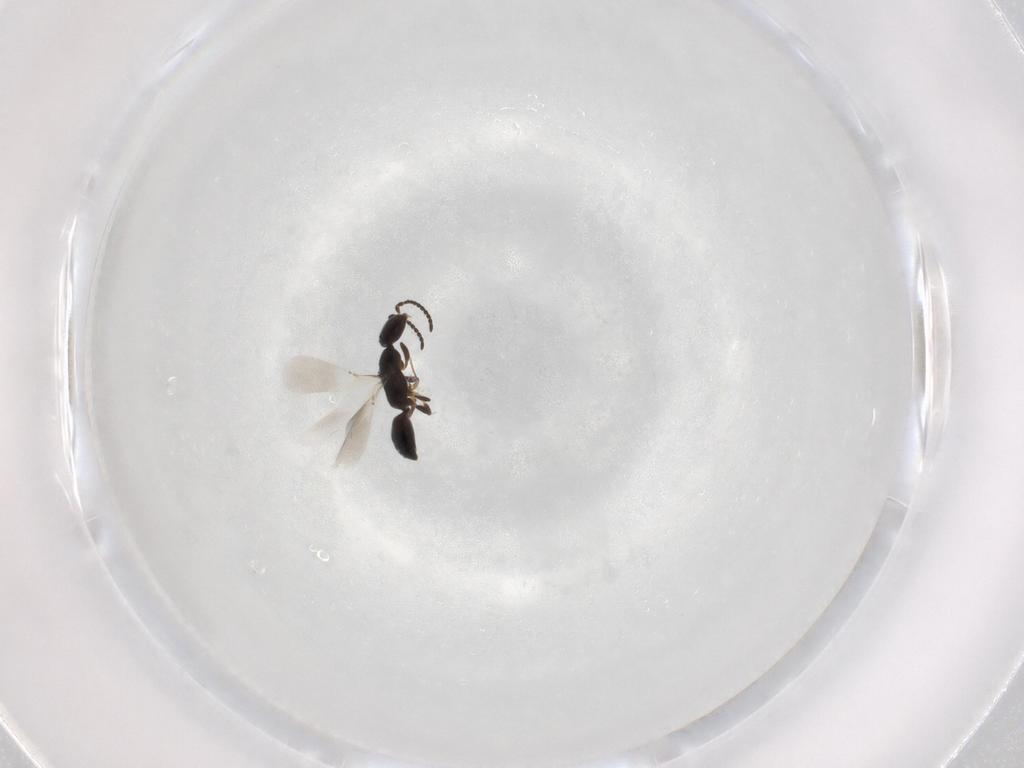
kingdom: Animalia
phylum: Arthropoda
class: Insecta
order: Hymenoptera
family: Bethylidae
